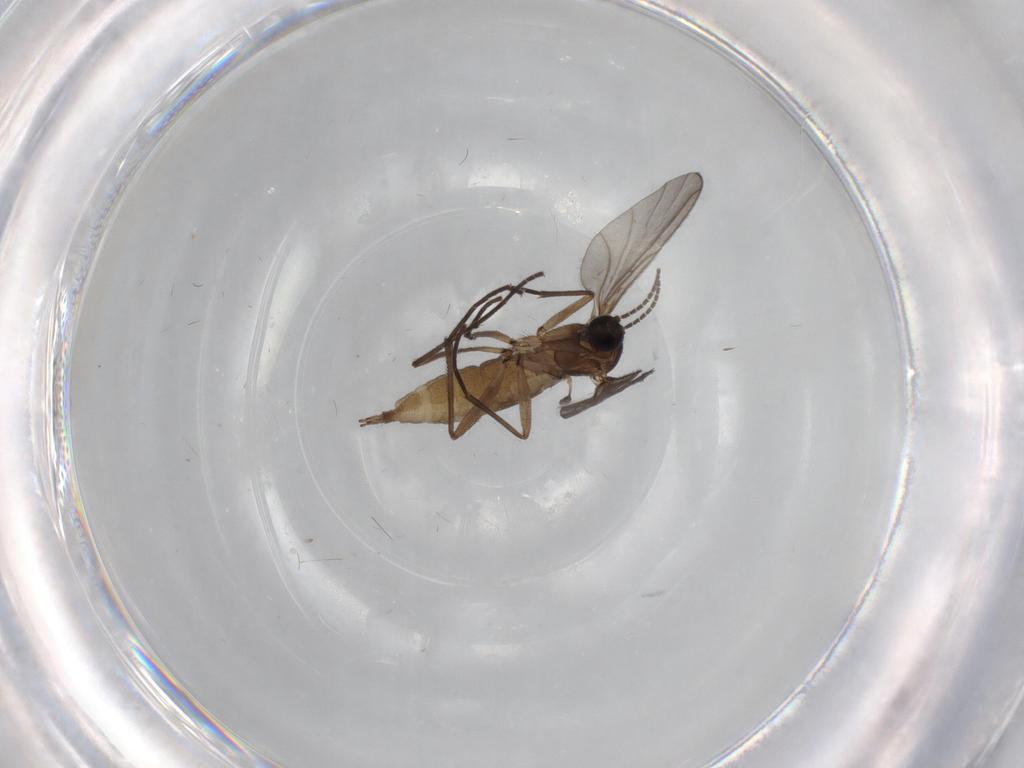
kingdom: Animalia
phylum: Arthropoda
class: Insecta
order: Diptera
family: Sciaridae
